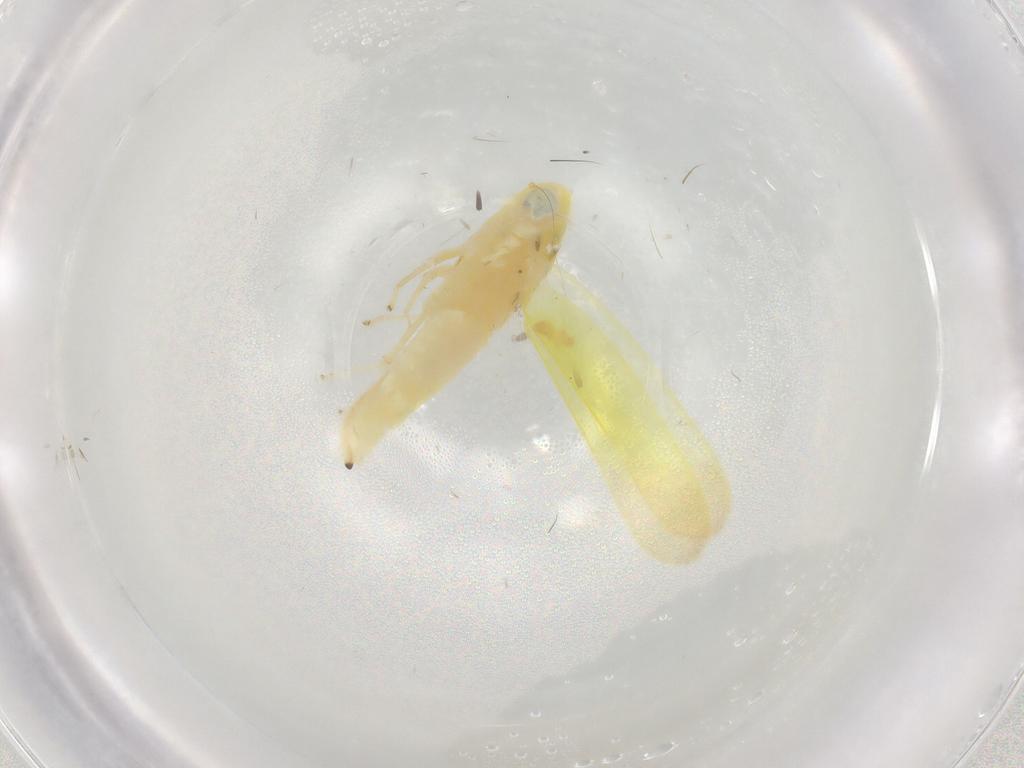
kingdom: Animalia
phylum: Arthropoda
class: Insecta
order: Hemiptera
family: Cicadellidae
